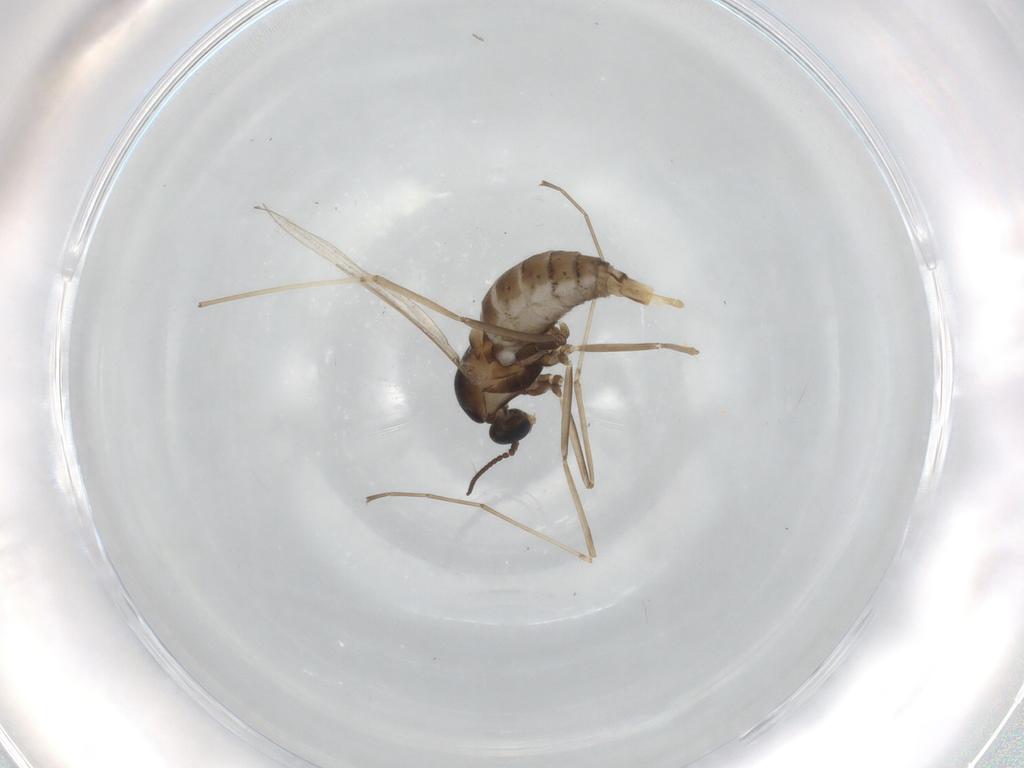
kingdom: Animalia
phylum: Arthropoda
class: Insecta
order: Diptera
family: Cecidomyiidae
